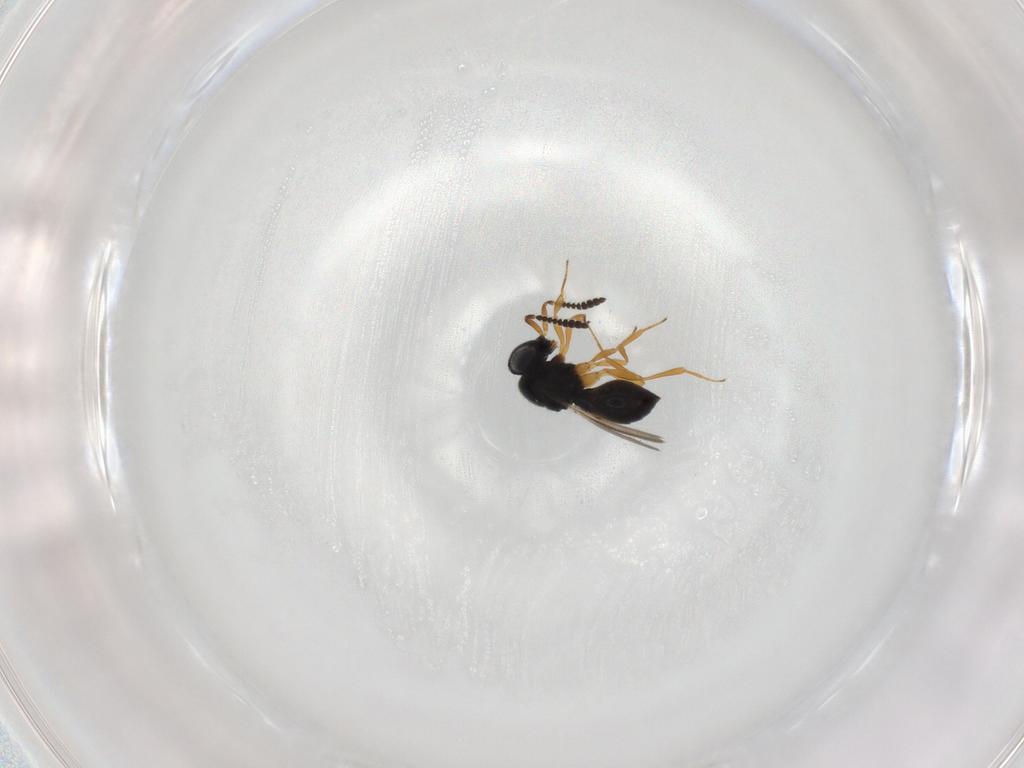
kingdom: Animalia
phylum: Arthropoda
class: Insecta
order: Hymenoptera
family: Scelionidae
